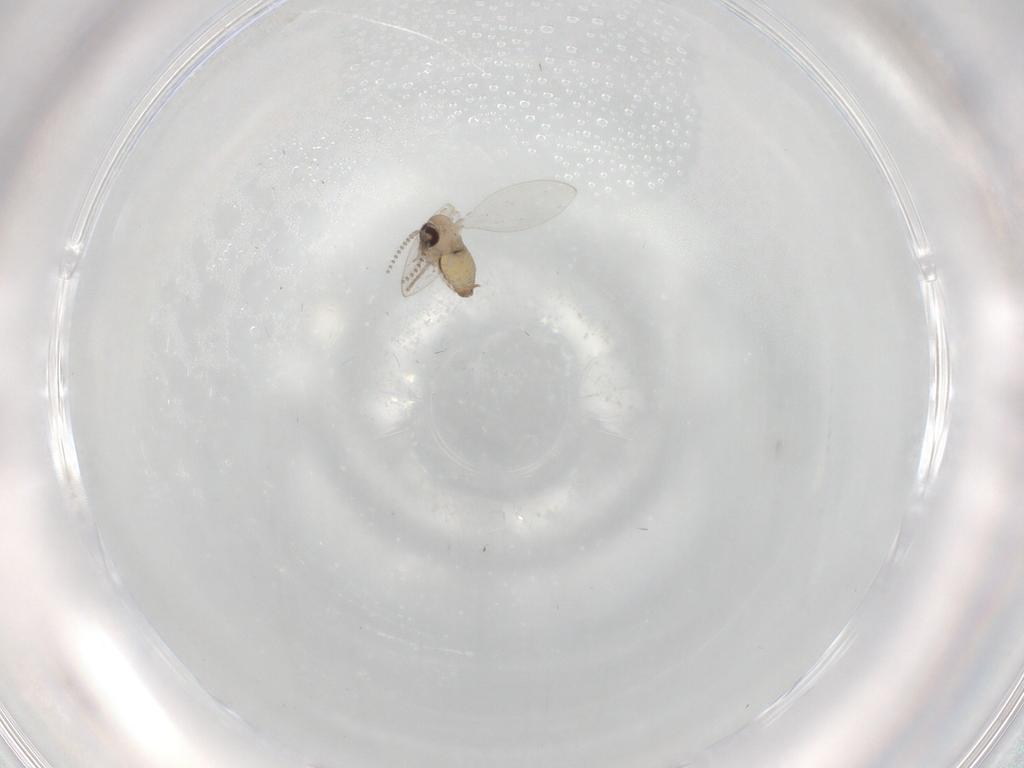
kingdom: Animalia
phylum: Arthropoda
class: Insecta
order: Diptera
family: Psychodidae
